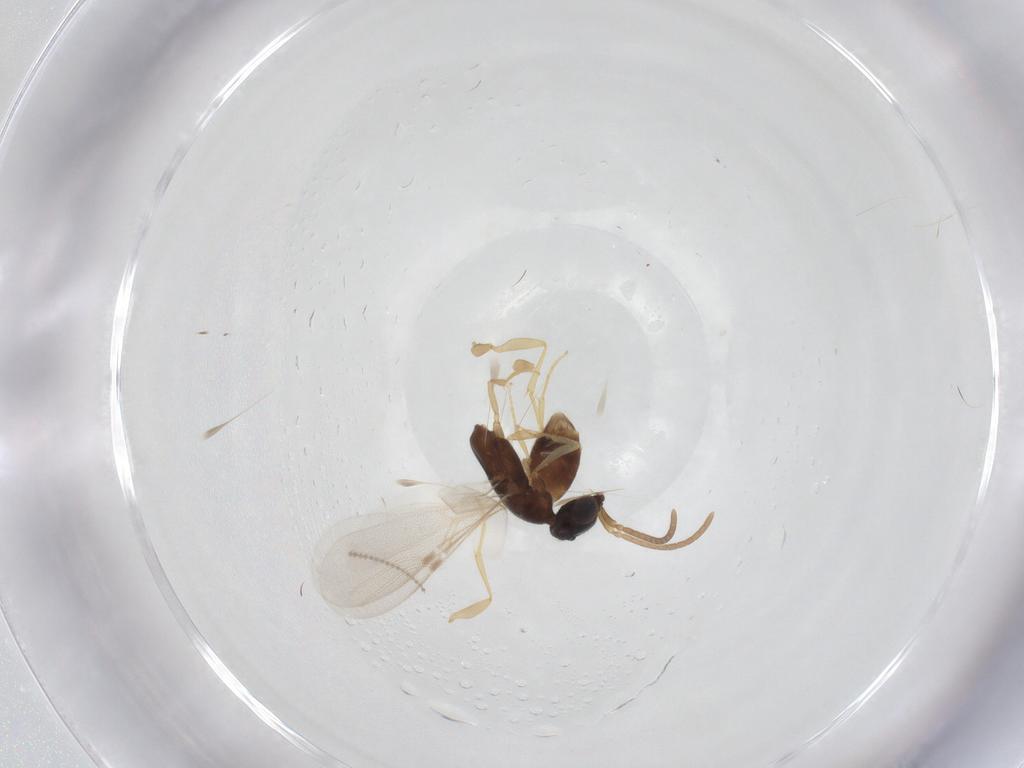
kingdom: Animalia
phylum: Arthropoda
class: Insecta
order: Hymenoptera
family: Bethylidae
